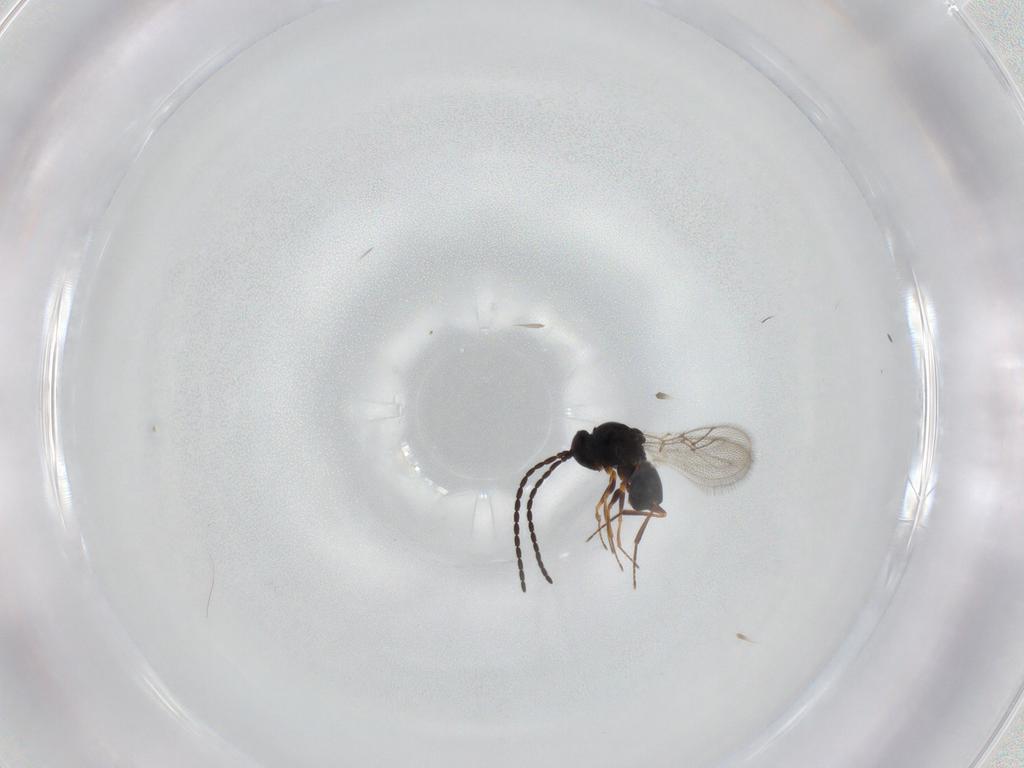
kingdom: Animalia
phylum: Arthropoda
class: Insecta
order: Hymenoptera
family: Figitidae
